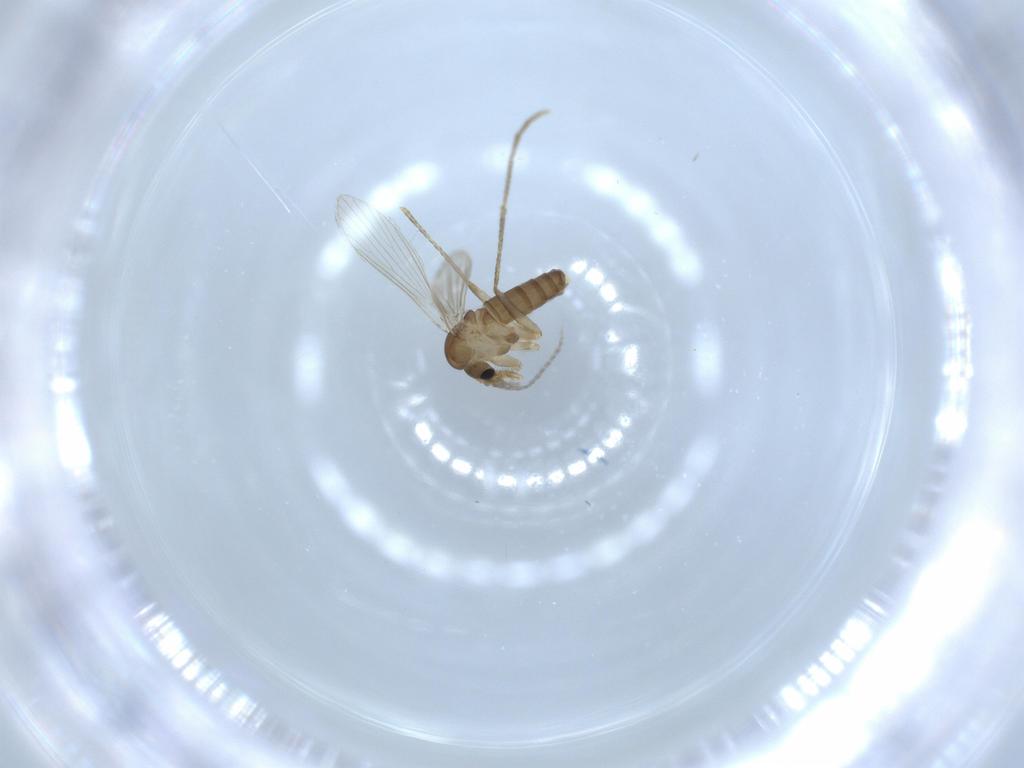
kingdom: Animalia
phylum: Arthropoda
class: Insecta
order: Diptera
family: Psychodidae
